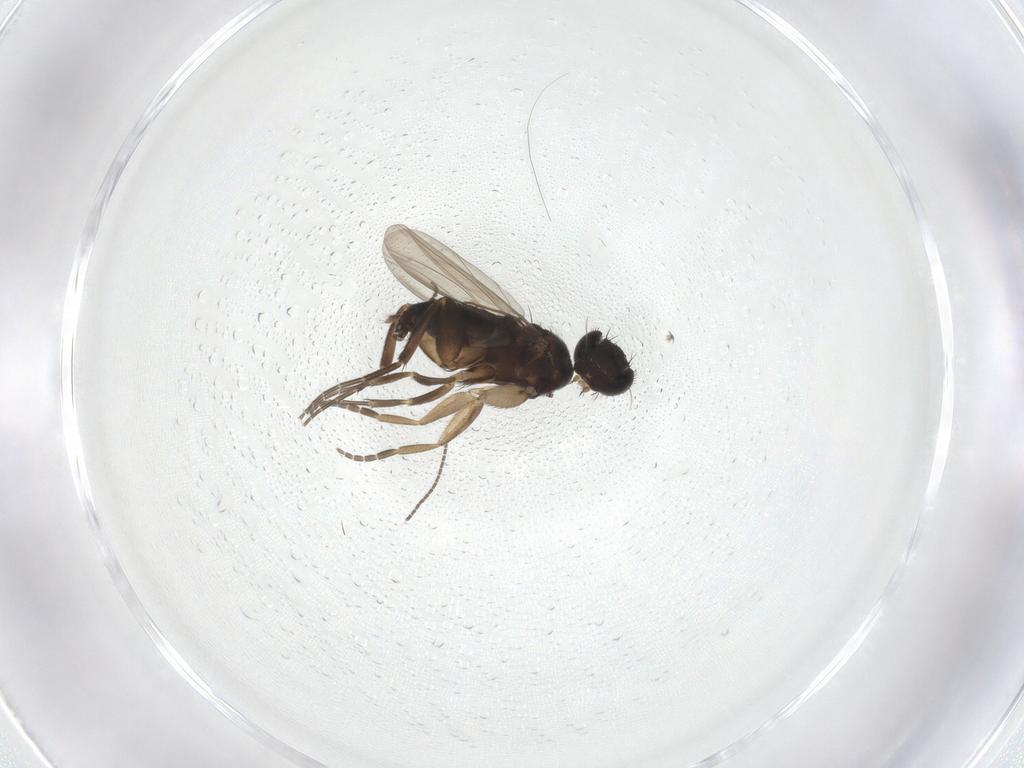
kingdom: Animalia
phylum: Arthropoda
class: Insecta
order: Diptera
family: Phoridae
